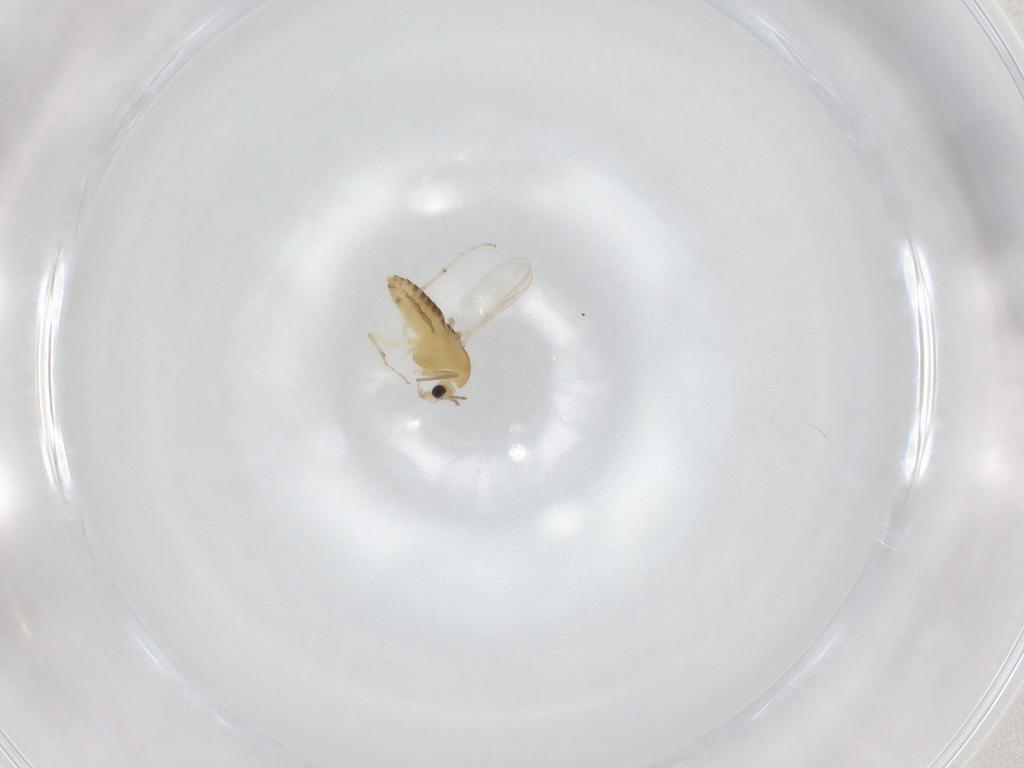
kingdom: Animalia
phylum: Arthropoda
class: Insecta
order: Diptera
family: Chironomidae
